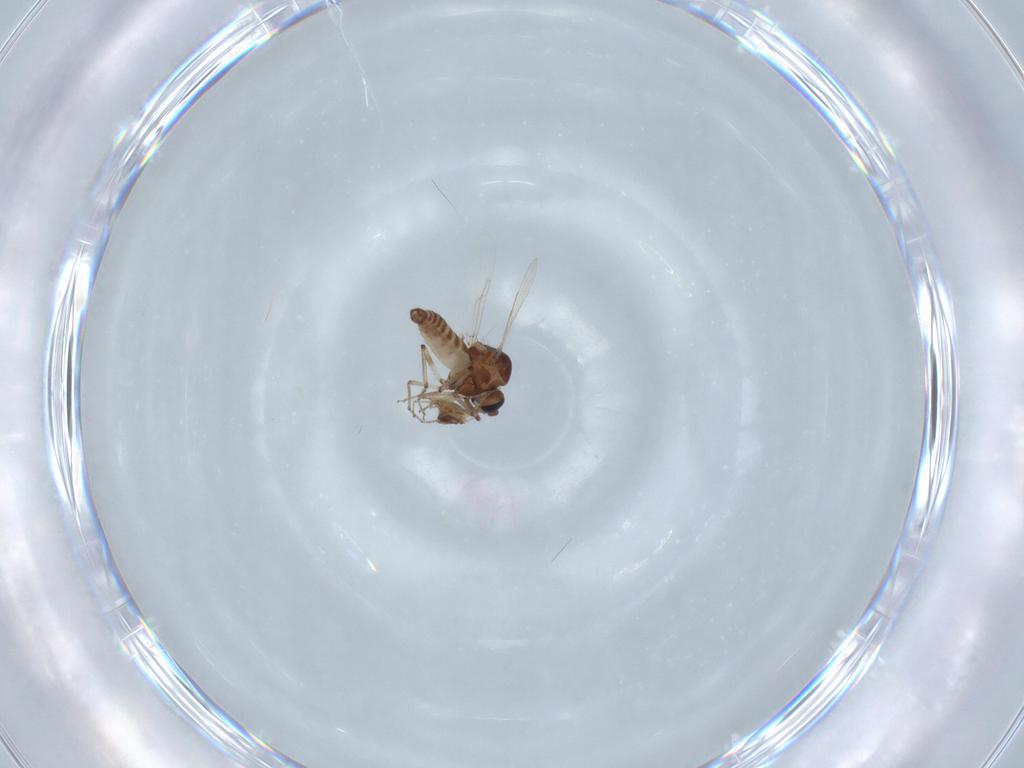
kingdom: Animalia
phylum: Arthropoda
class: Insecta
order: Diptera
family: Ceratopogonidae
